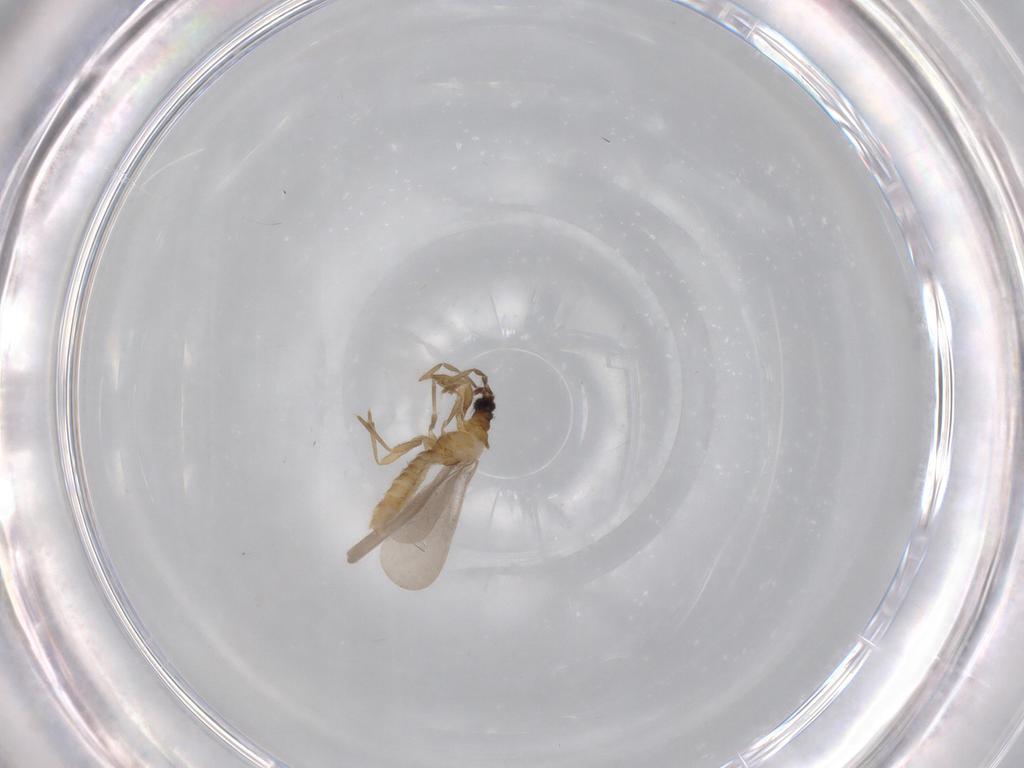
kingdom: Animalia
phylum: Arthropoda
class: Insecta
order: Hemiptera
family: Enicocephalidae
